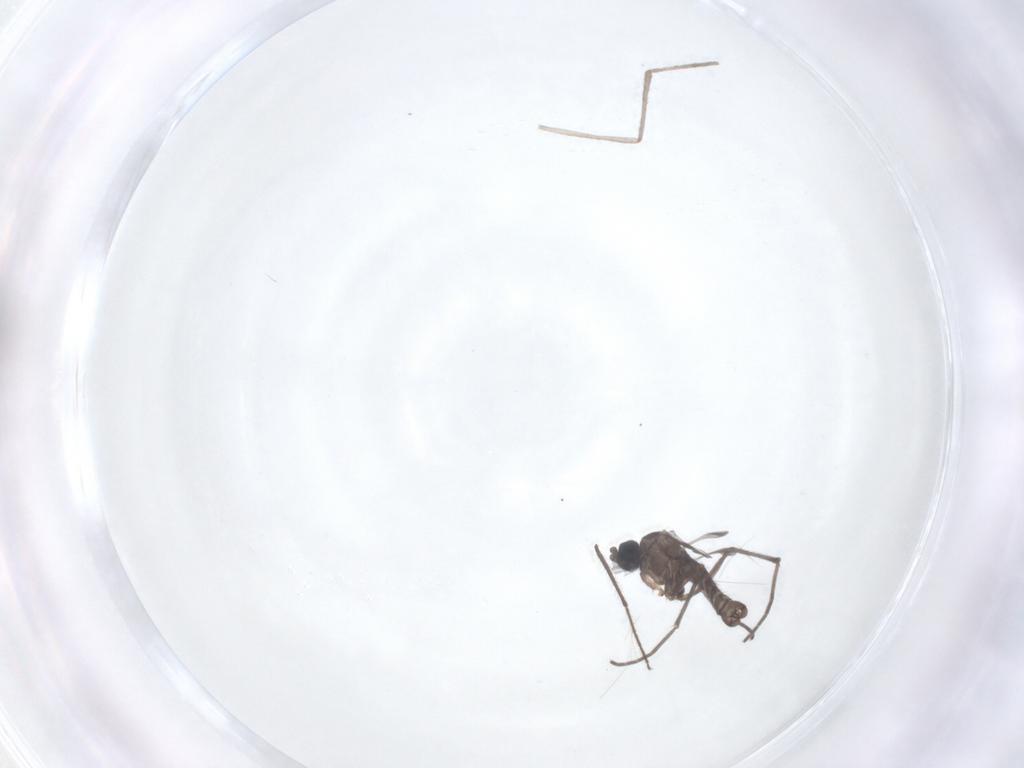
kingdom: Animalia
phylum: Arthropoda
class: Insecta
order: Diptera
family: Sciaridae
